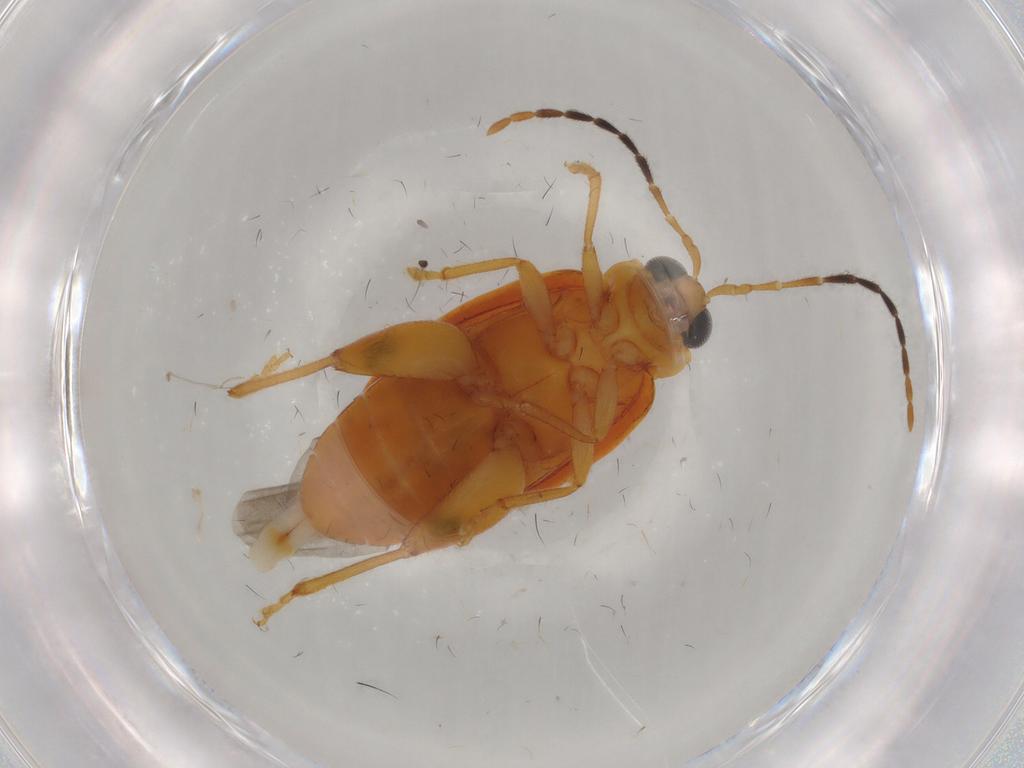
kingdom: Animalia
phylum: Arthropoda
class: Insecta
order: Coleoptera
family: Chrysomelidae
